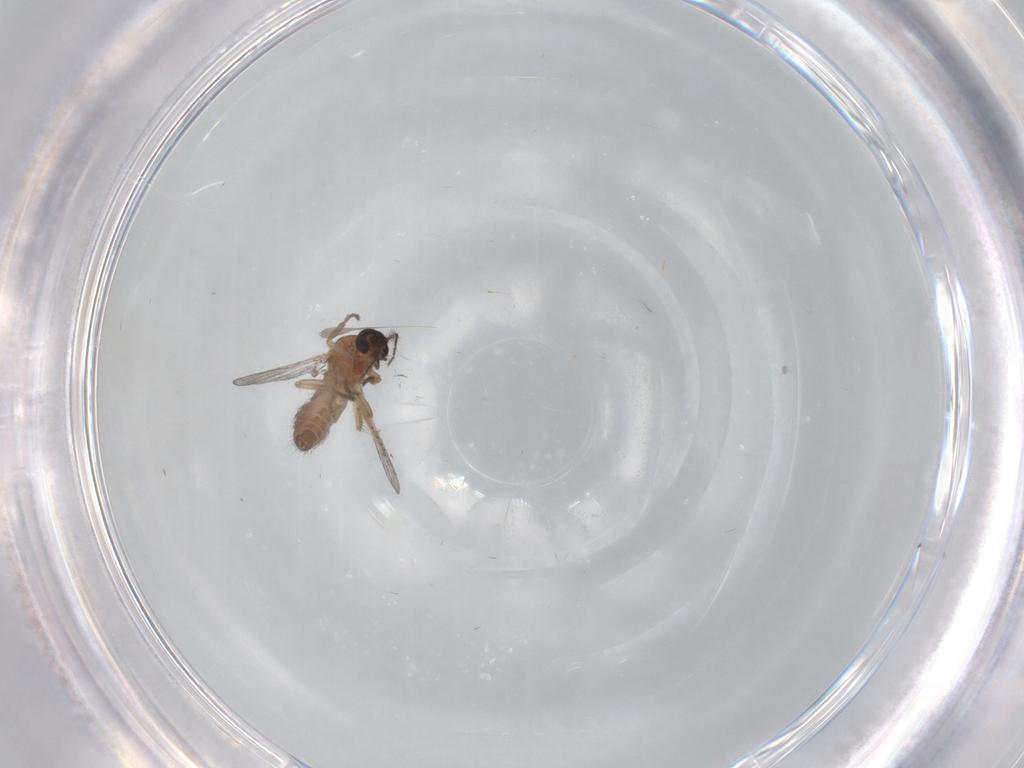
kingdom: Animalia
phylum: Arthropoda
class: Insecta
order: Diptera
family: Ceratopogonidae
